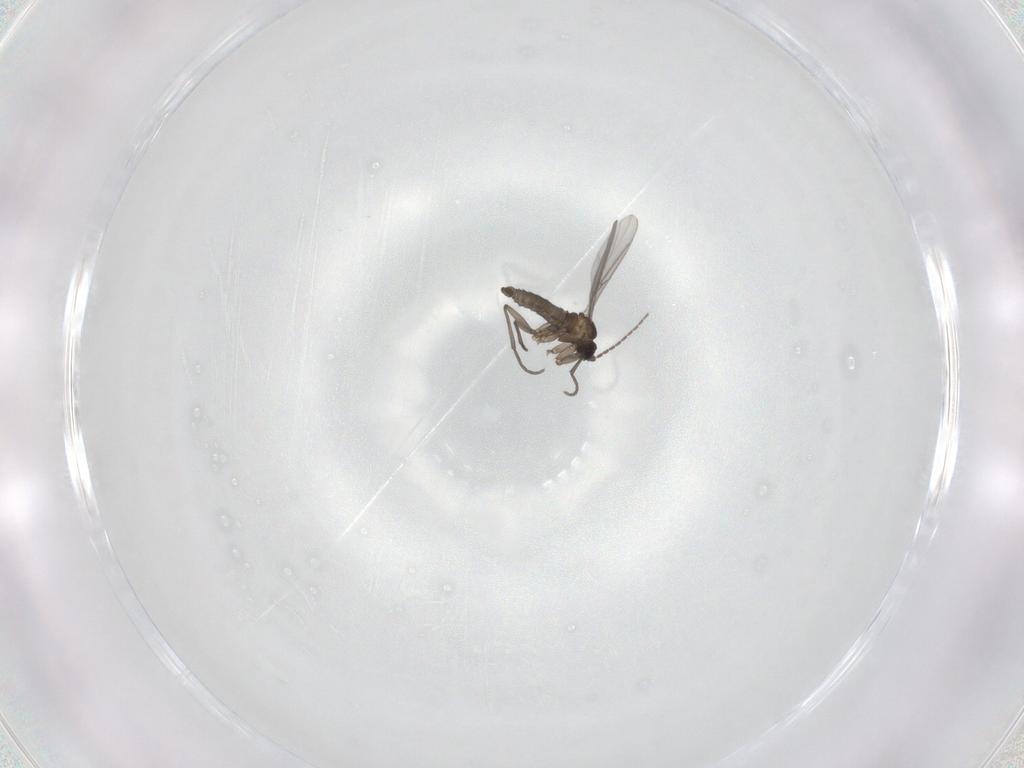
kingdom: Animalia
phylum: Arthropoda
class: Insecta
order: Diptera
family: Sciaridae
